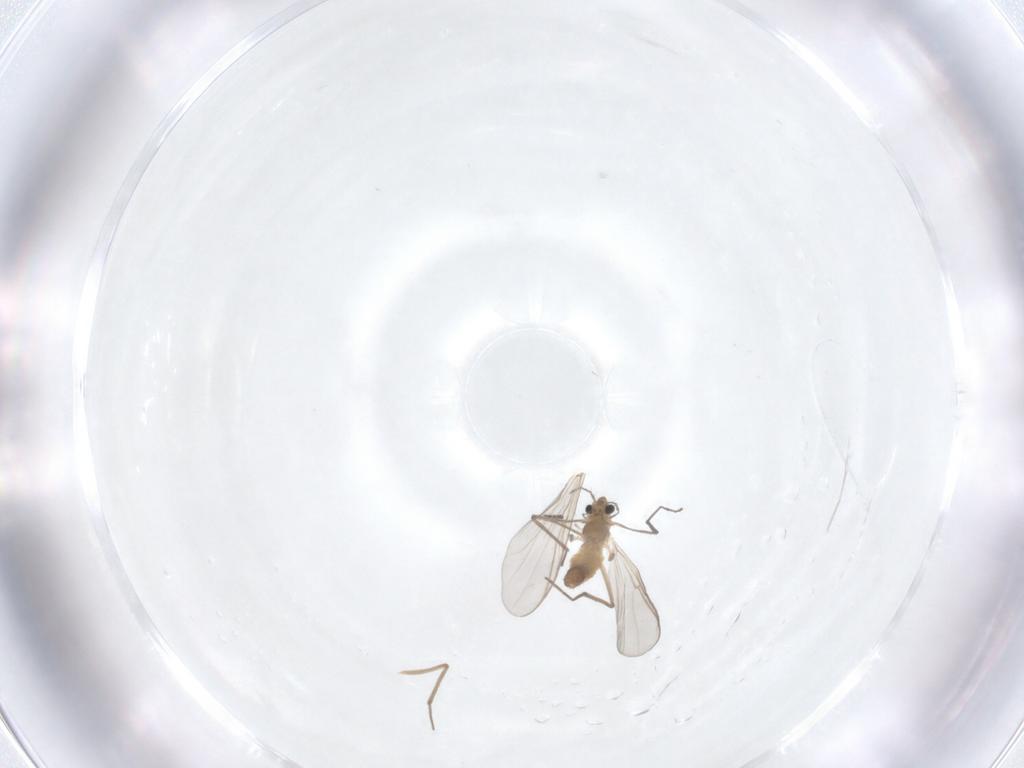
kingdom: Animalia
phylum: Arthropoda
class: Insecta
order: Diptera
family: Chironomidae
